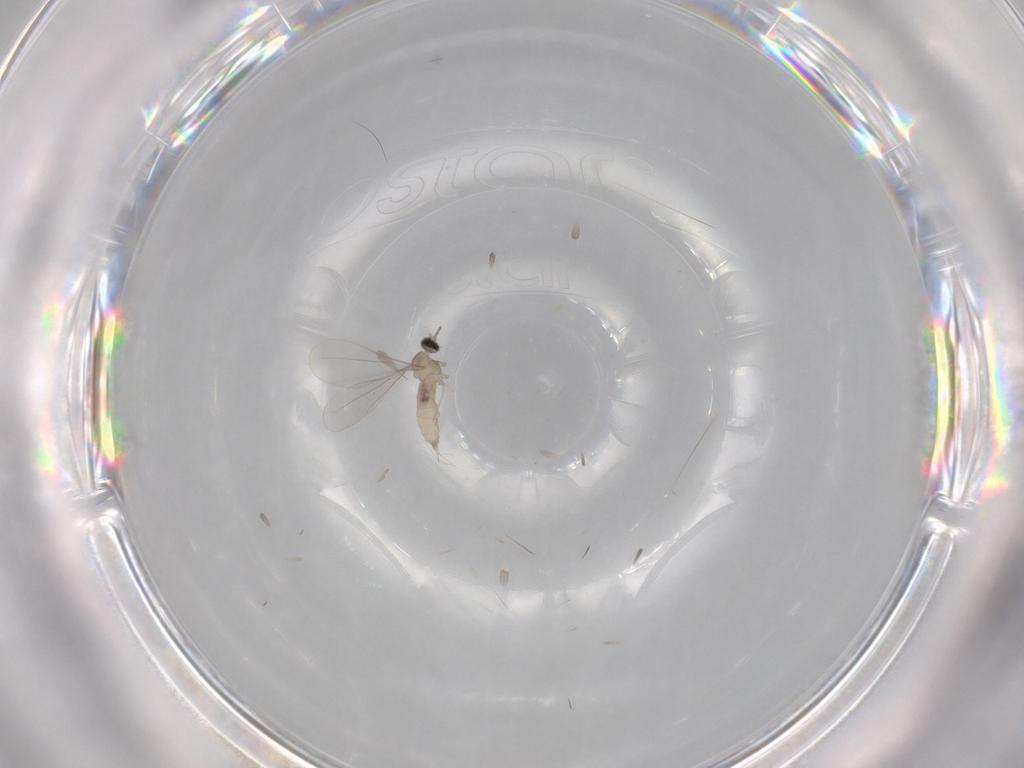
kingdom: Animalia
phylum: Arthropoda
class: Insecta
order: Diptera
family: Cecidomyiidae
